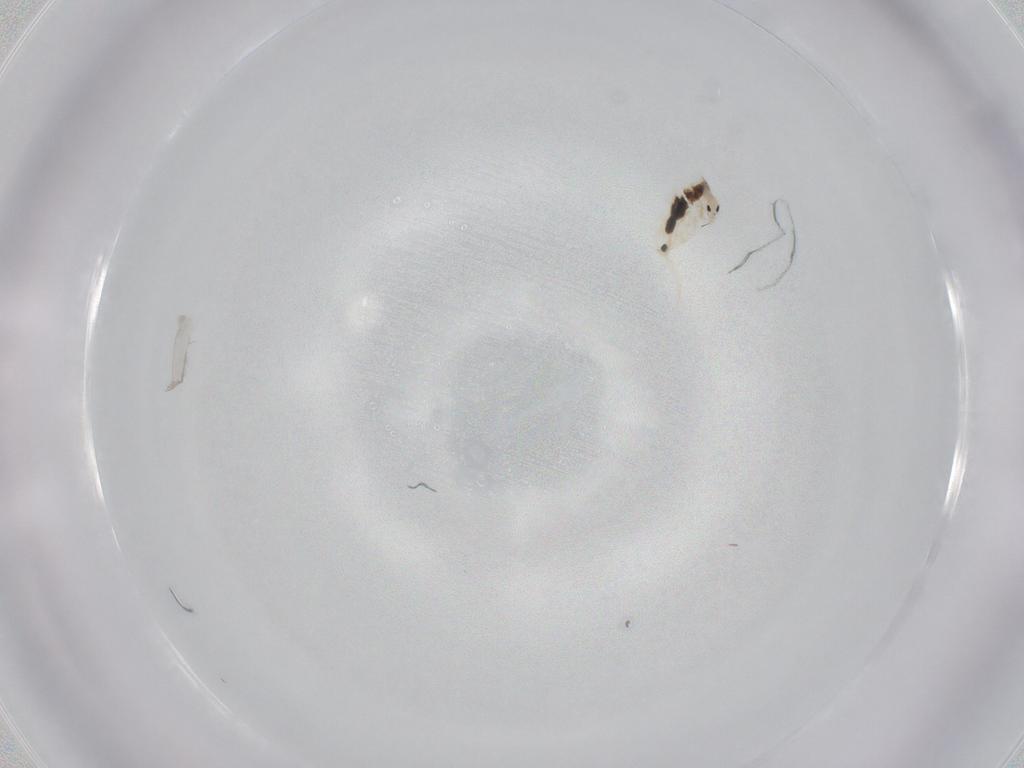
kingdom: Animalia
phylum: Arthropoda
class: Collembola
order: Entomobryomorpha
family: Entomobryidae
